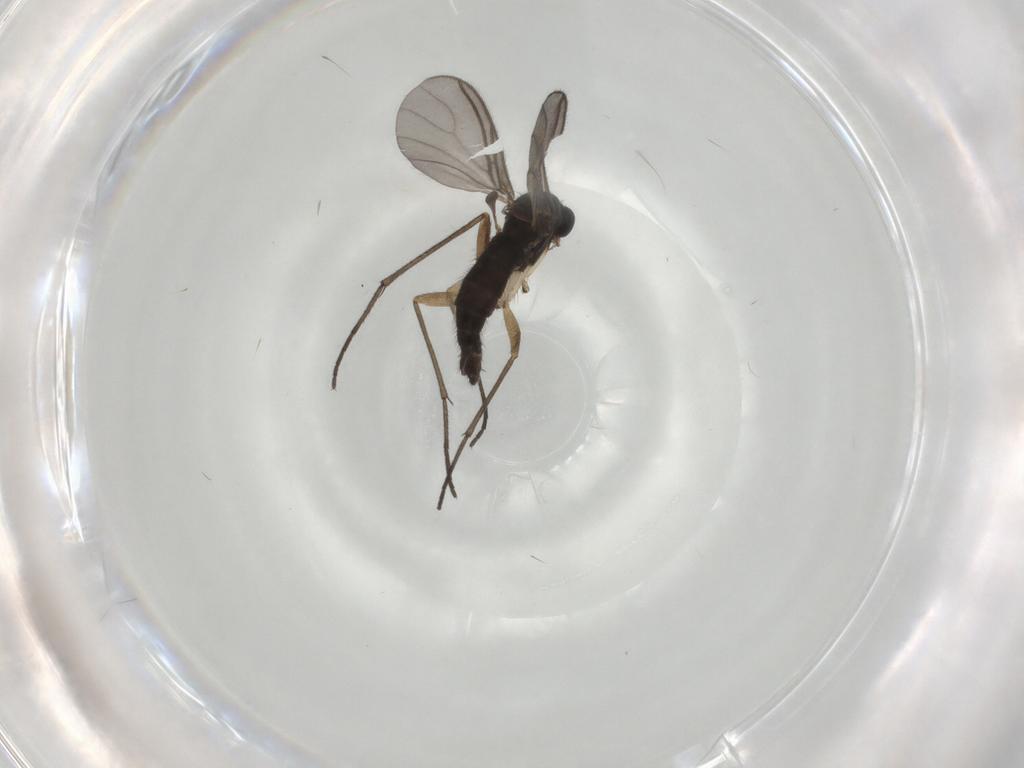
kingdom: Animalia
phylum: Arthropoda
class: Insecta
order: Diptera
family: Sciaridae
